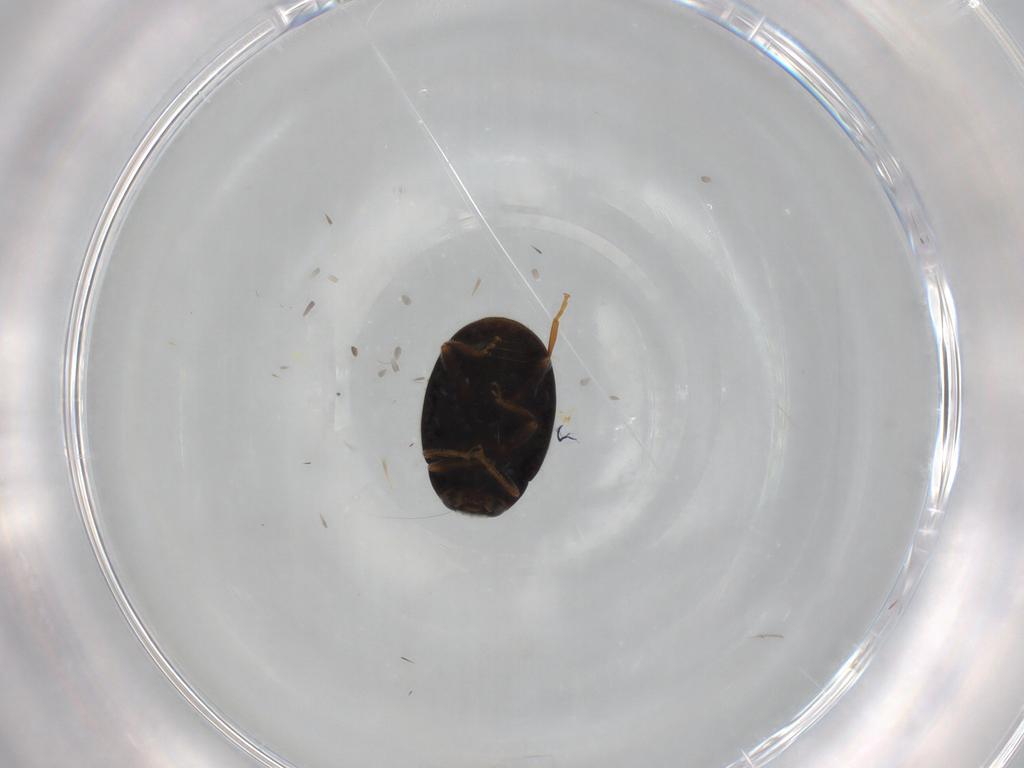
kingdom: Animalia
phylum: Arthropoda
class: Insecta
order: Coleoptera
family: Coccinellidae
